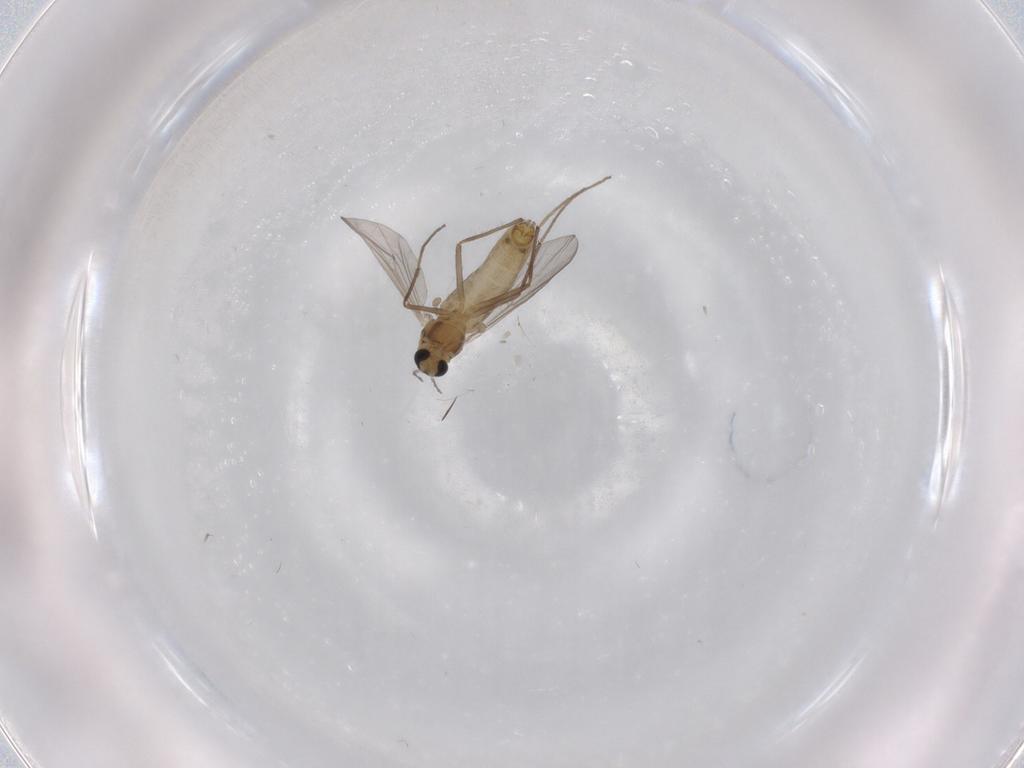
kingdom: Animalia
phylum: Arthropoda
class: Insecta
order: Diptera
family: Chironomidae
